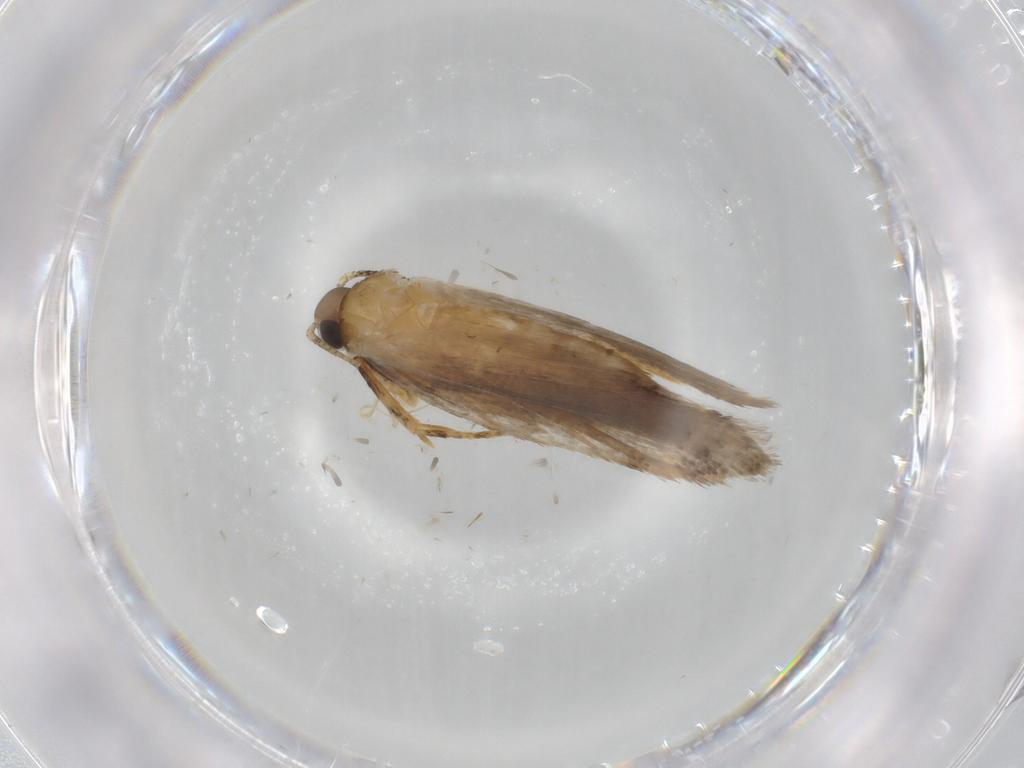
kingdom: Animalia
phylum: Arthropoda
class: Insecta
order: Lepidoptera
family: Autostichidae
